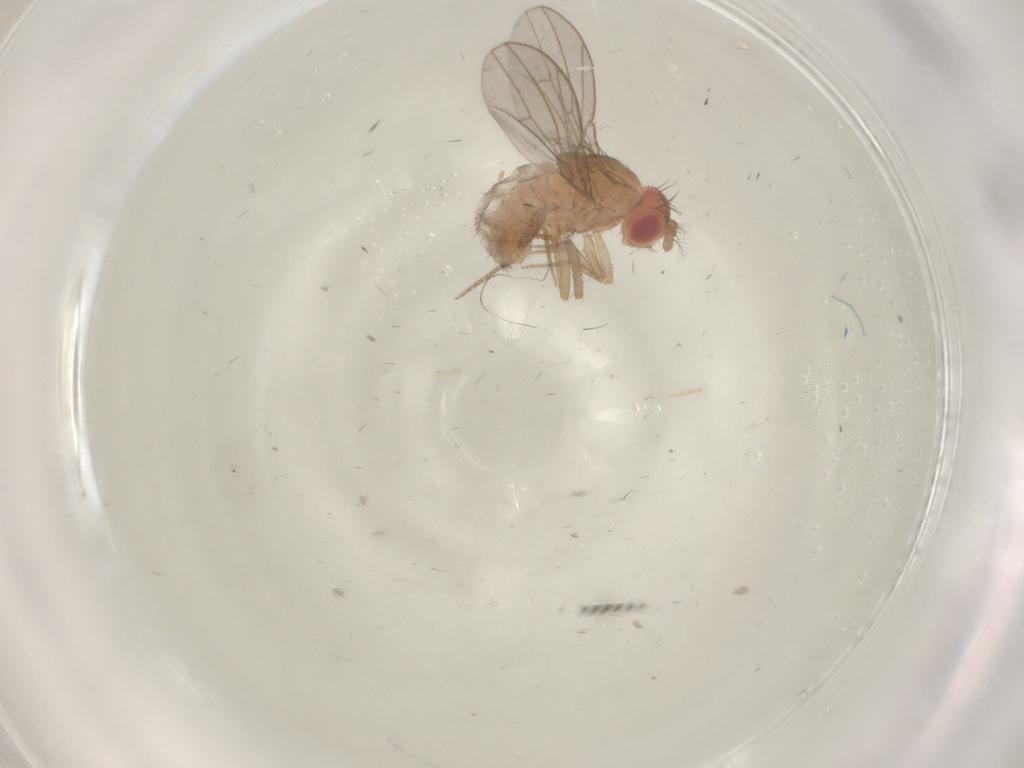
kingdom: Animalia
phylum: Arthropoda
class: Insecta
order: Diptera
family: Drosophilidae
